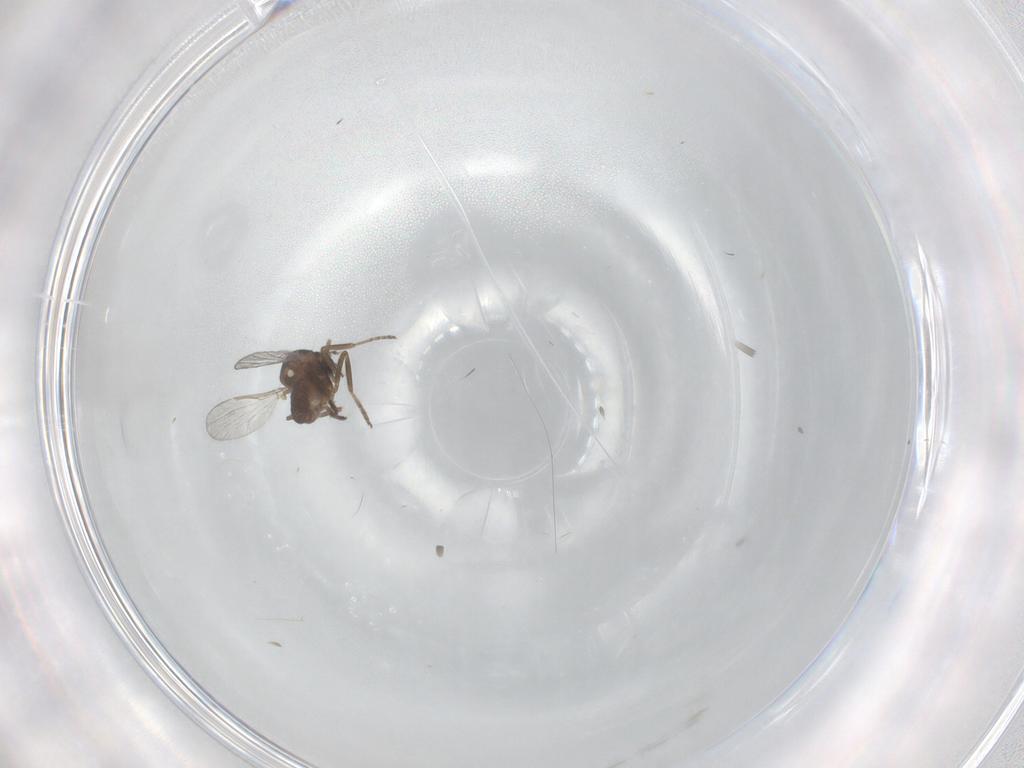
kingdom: Animalia
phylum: Arthropoda
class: Insecta
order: Diptera
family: Ceratopogonidae
